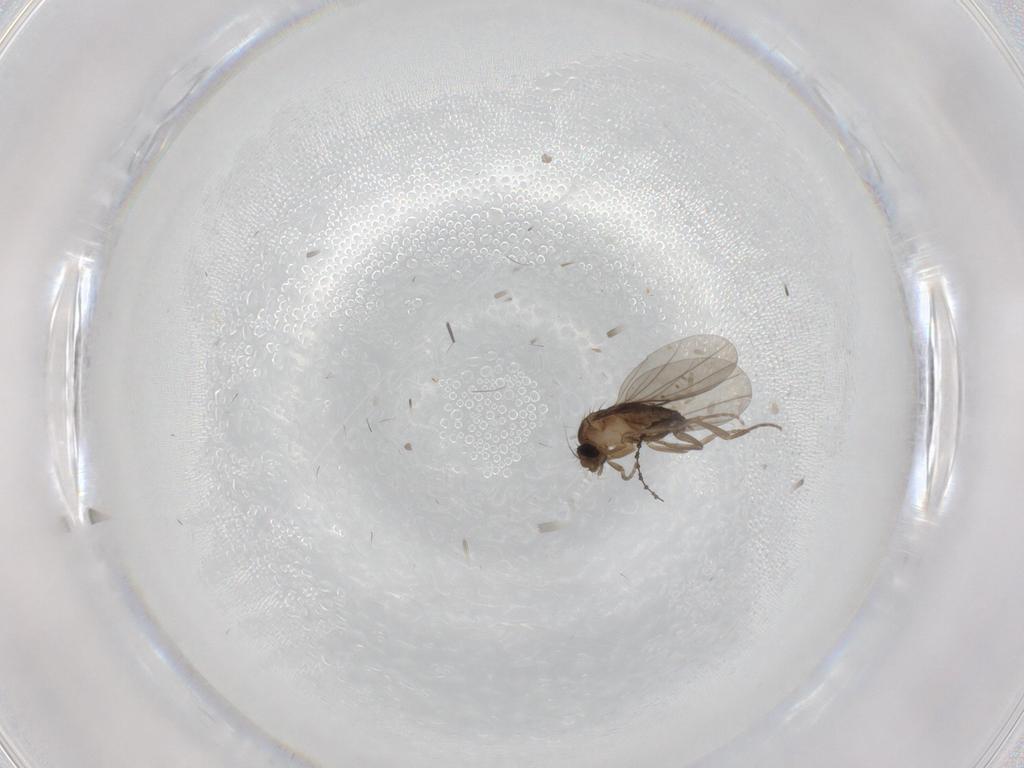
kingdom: Animalia
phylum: Arthropoda
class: Insecta
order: Diptera
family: Phoridae
